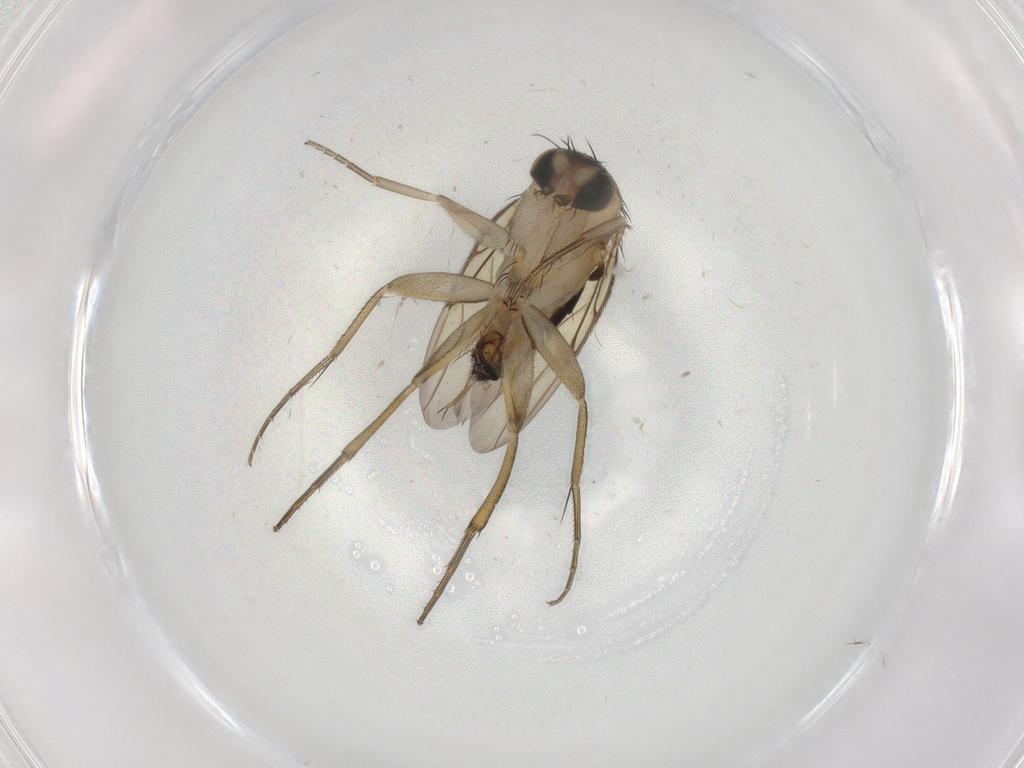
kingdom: Animalia
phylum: Arthropoda
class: Insecta
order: Diptera
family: Phoridae
